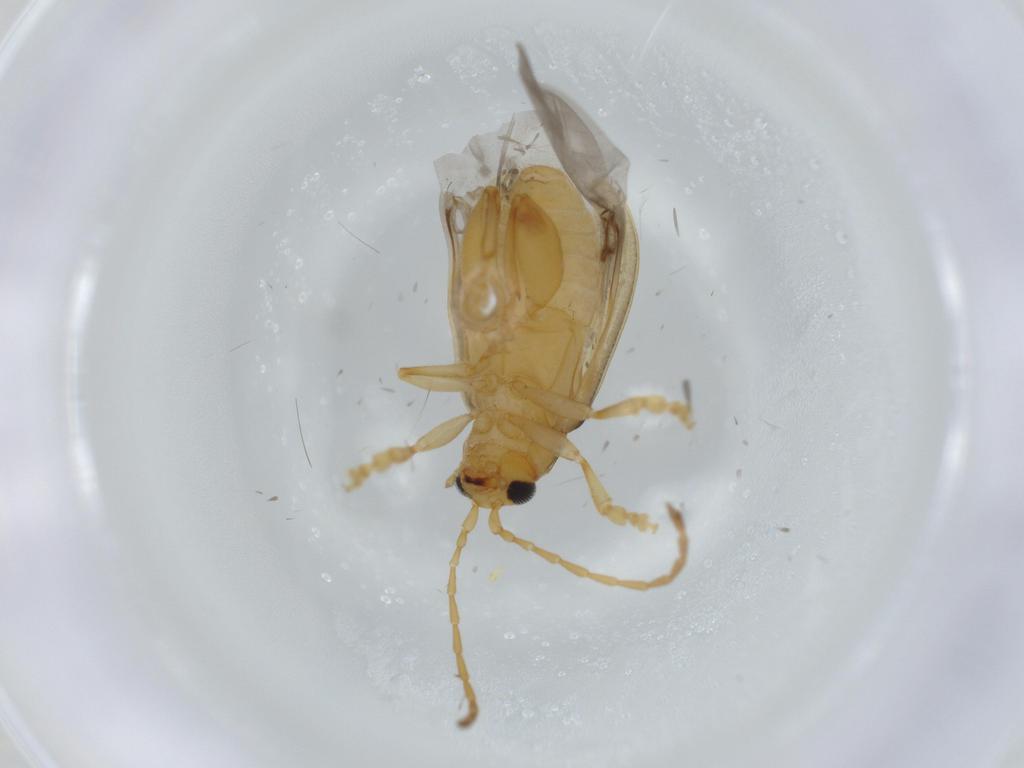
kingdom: Animalia
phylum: Arthropoda
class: Insecta
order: Coleoptera
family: Chrysomelidae
